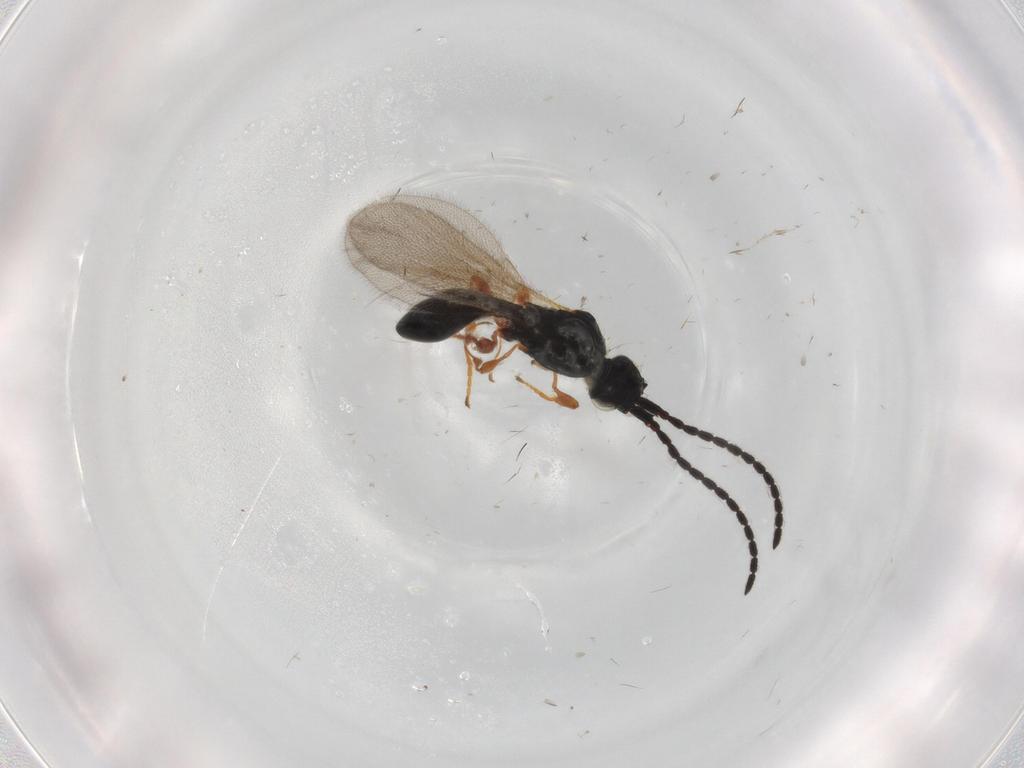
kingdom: Animalia
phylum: Arthropoda
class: Insecta
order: Hymenoptera
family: Diapriidae
